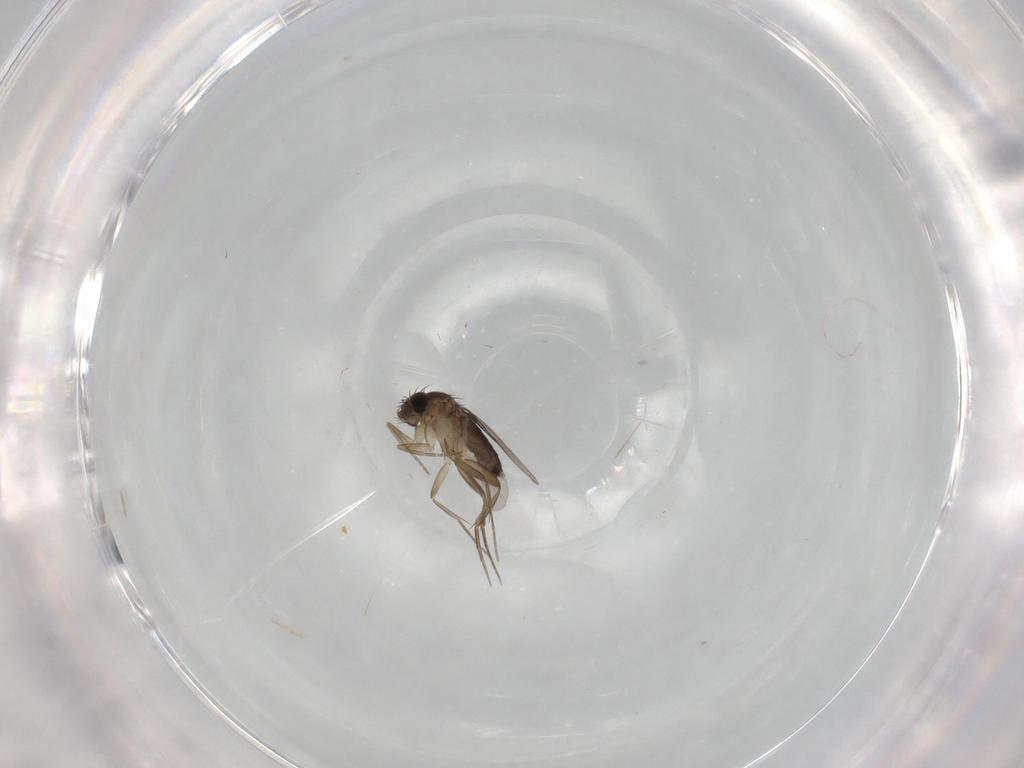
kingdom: Animalia
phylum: Arthropoda
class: Insecta
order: Diptera
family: Phoridae
